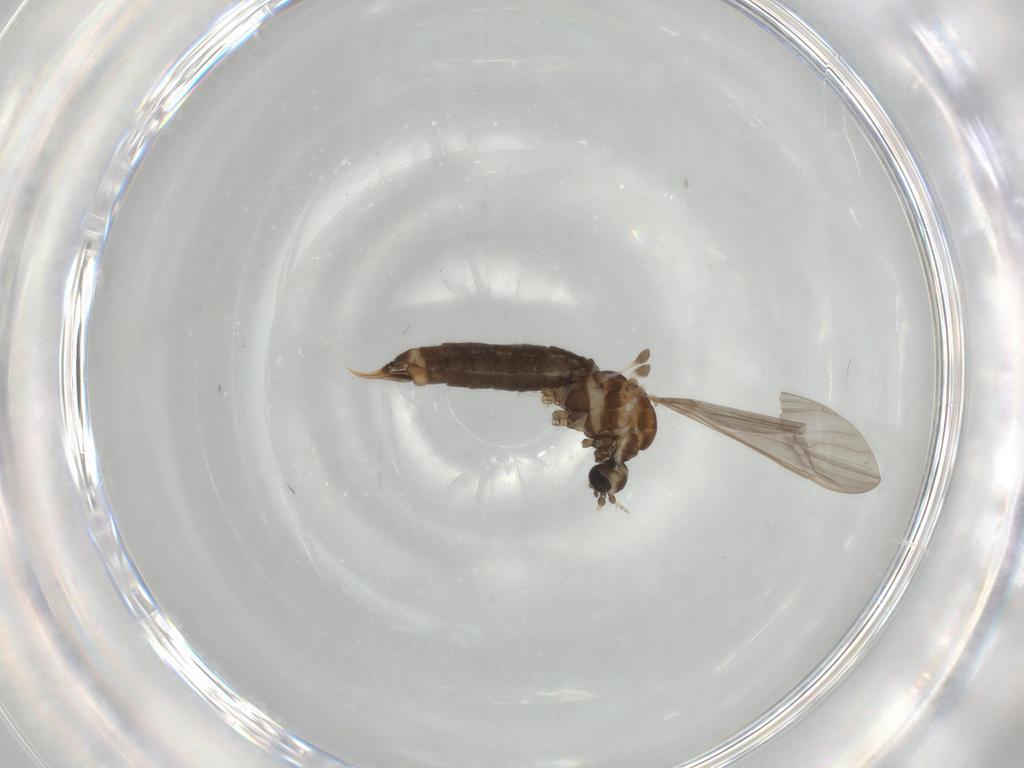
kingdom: Animalia
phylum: Arthropoda
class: Insecta
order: Diptera
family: Limoniidae
